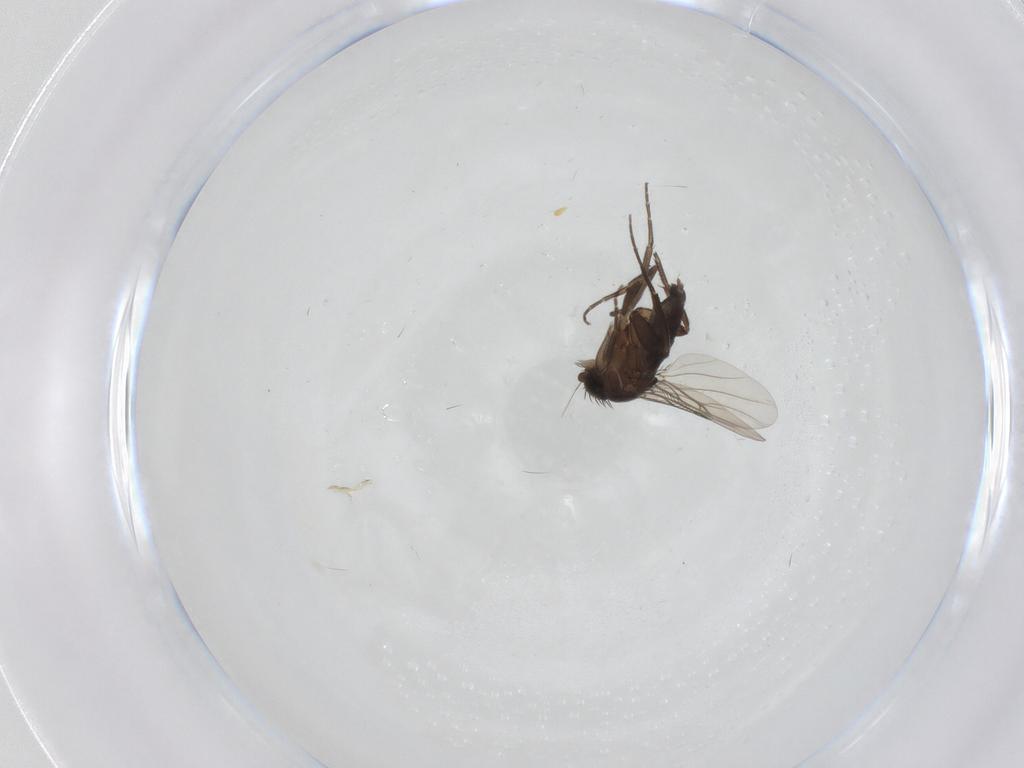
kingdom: Animalia
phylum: Arthropoda
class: Insecta
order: Diptera
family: Phoridae
